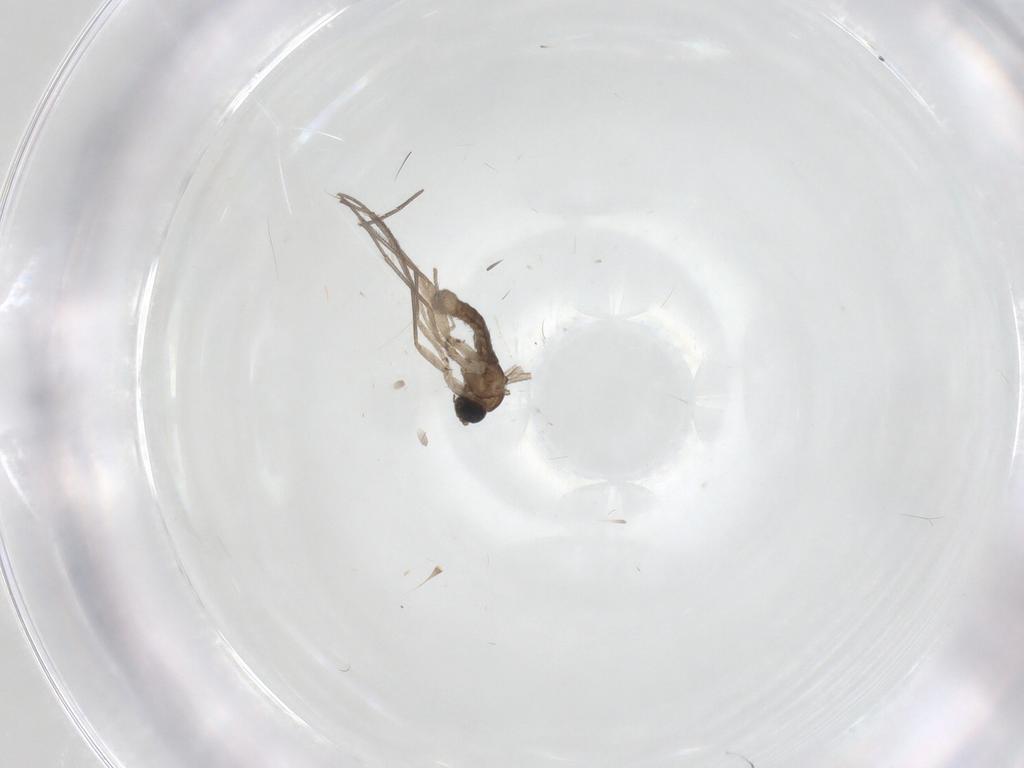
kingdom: Animalia
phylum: Arthropoda
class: Insecta
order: Diptera
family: Sciaridae
